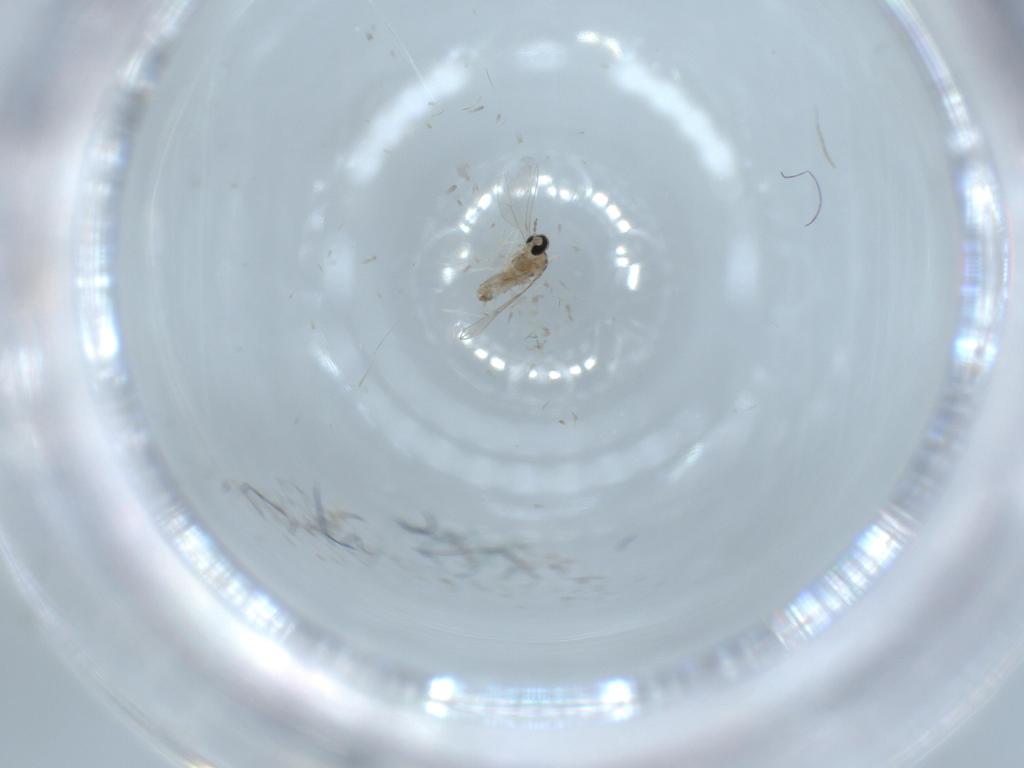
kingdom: Animalia
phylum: Arthropoda
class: Insecta
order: Diptera
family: Cecidomyiidae
